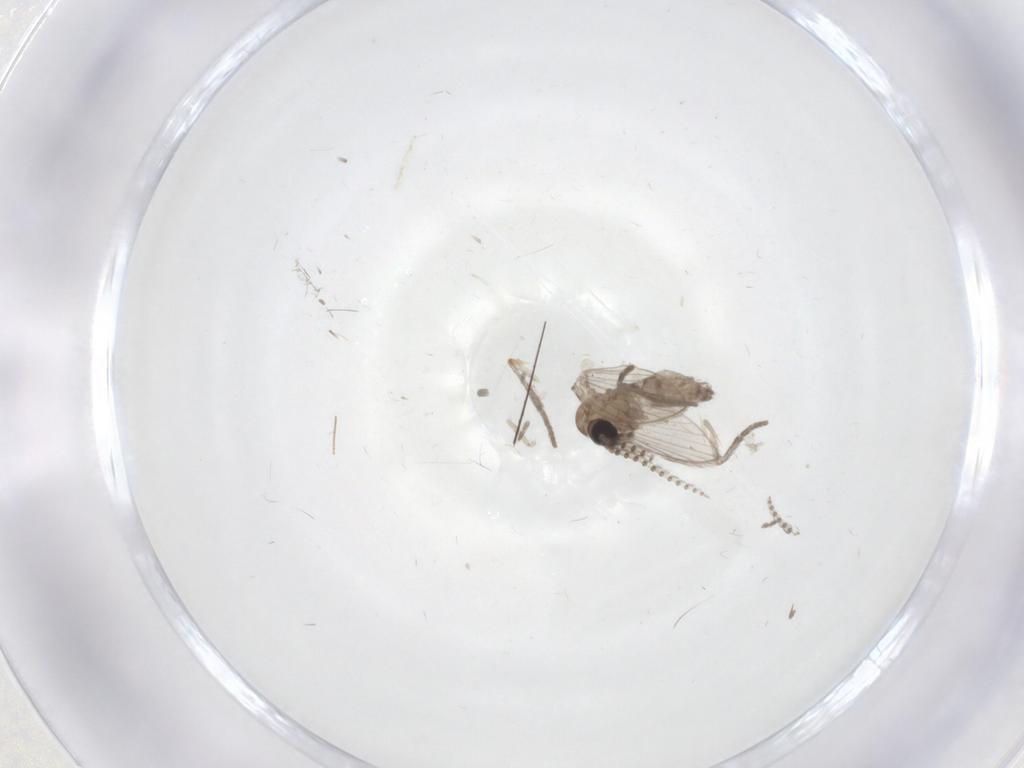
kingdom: Animalia
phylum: Arthropoda
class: Insecta
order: Diptera
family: Psychodidae
